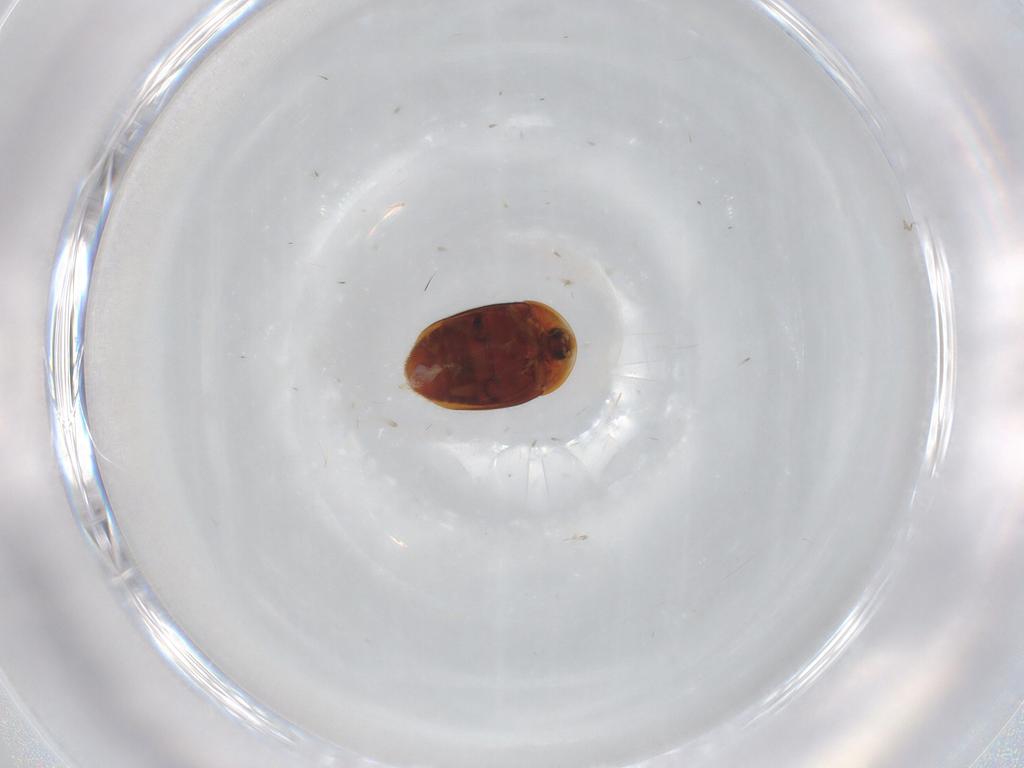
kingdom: Animalia
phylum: Arthropoda
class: Insecta
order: Coleoptera
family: Corylophidae
